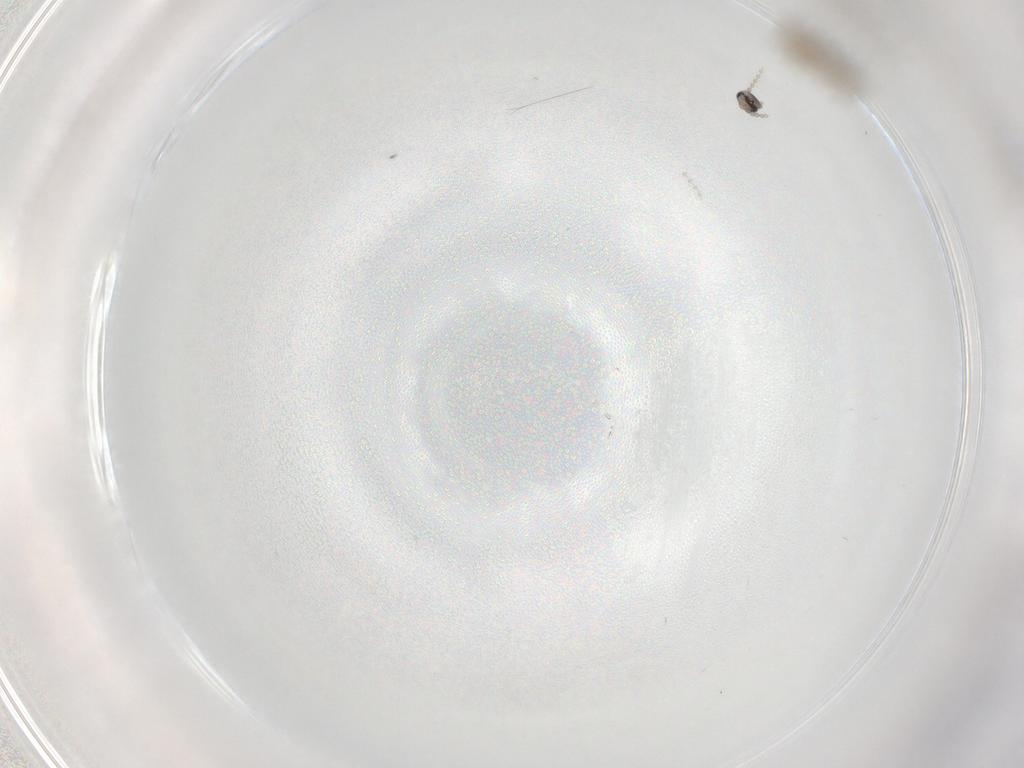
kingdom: Animalia
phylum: Arthropoda
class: Insecta
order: Diptera
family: Cecidomyiidae
